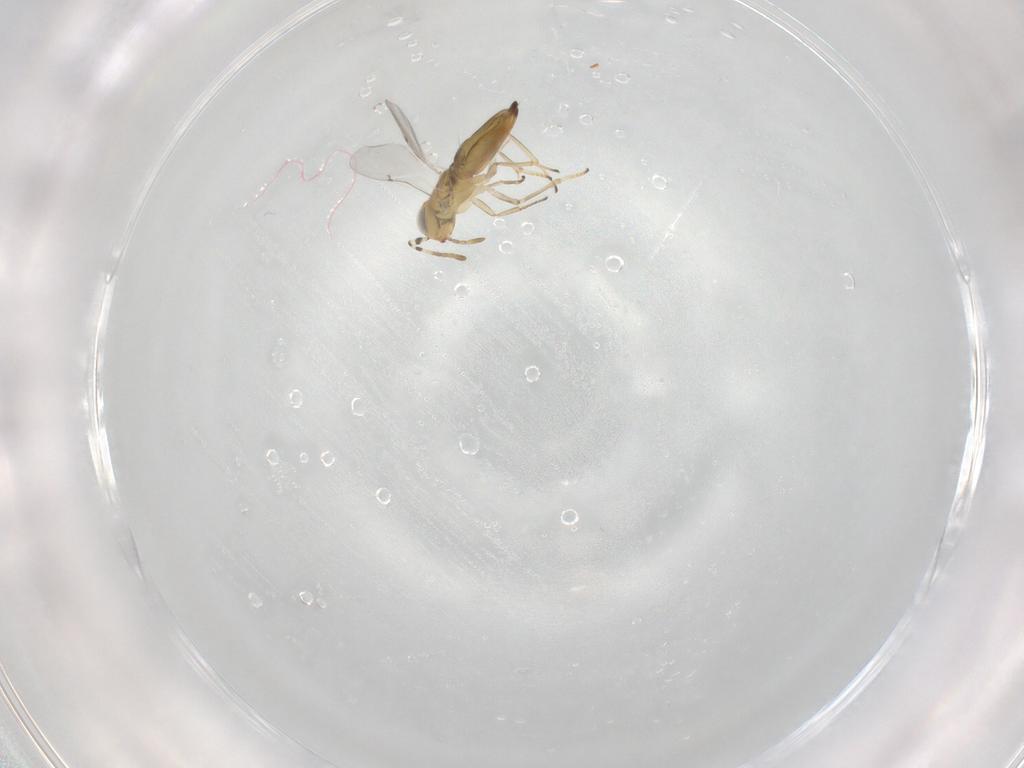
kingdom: Animalia
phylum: Arthropoda
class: Insecta
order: Hymenoptera
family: Encyrtidae
